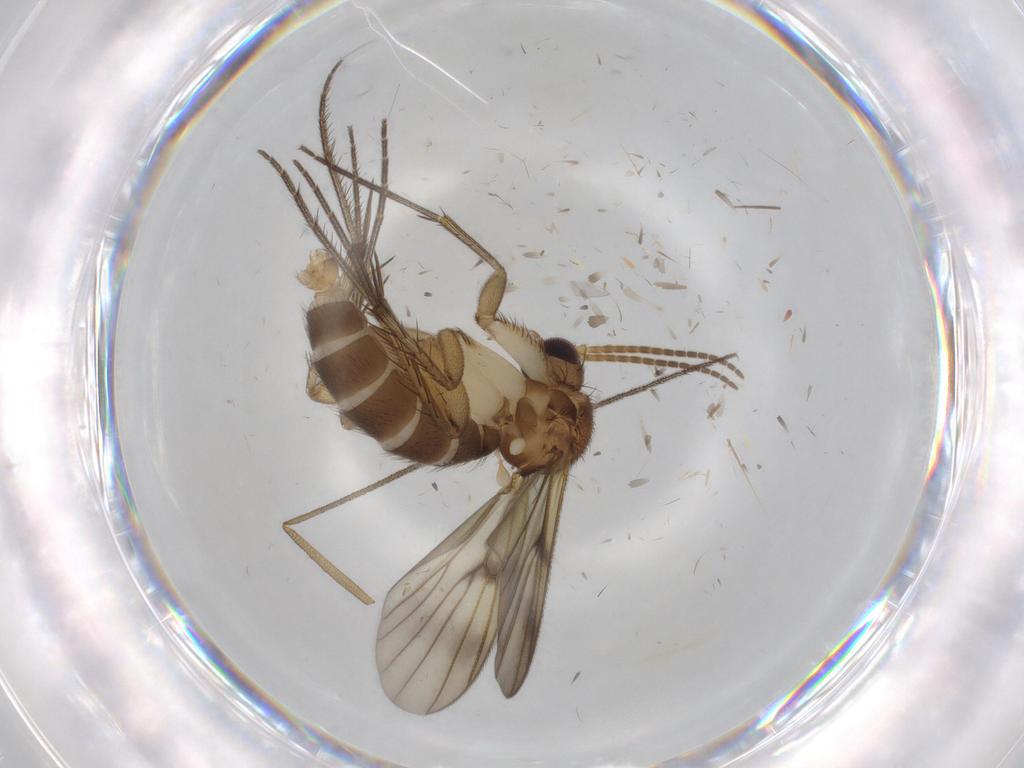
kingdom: Animalia
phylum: Arthropoda
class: Insecta
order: Diptera
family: Ditomyiidae
